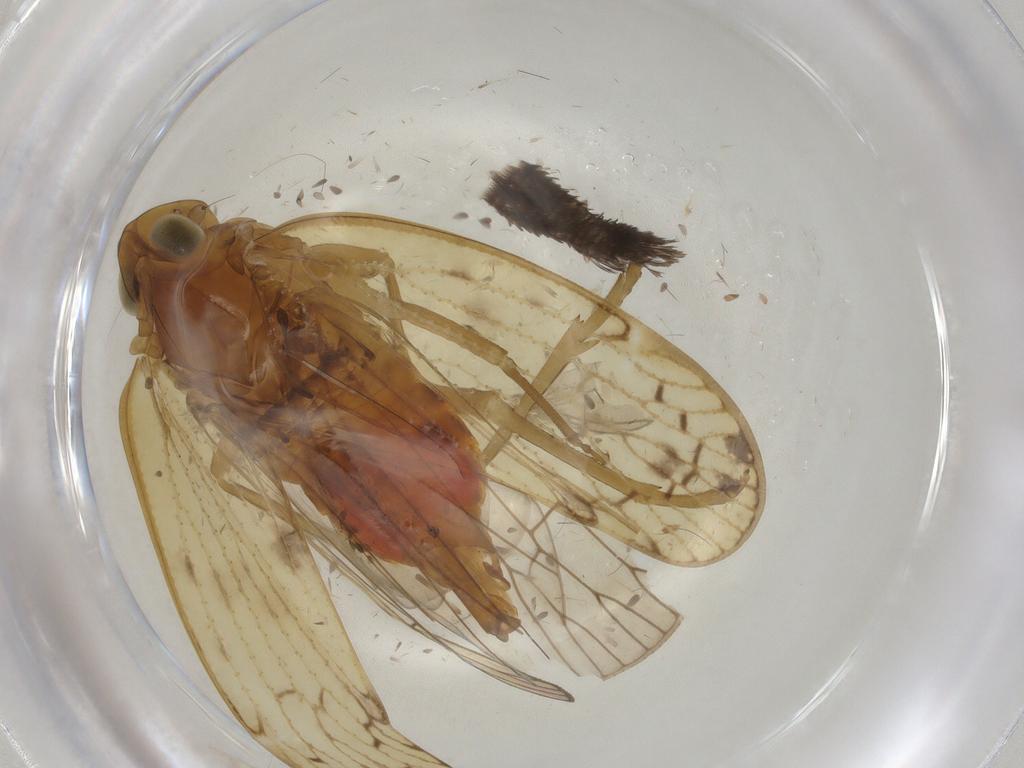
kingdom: Animalia
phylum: Arthropoda
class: Insecta
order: Hemiptera
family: Cixiidae
